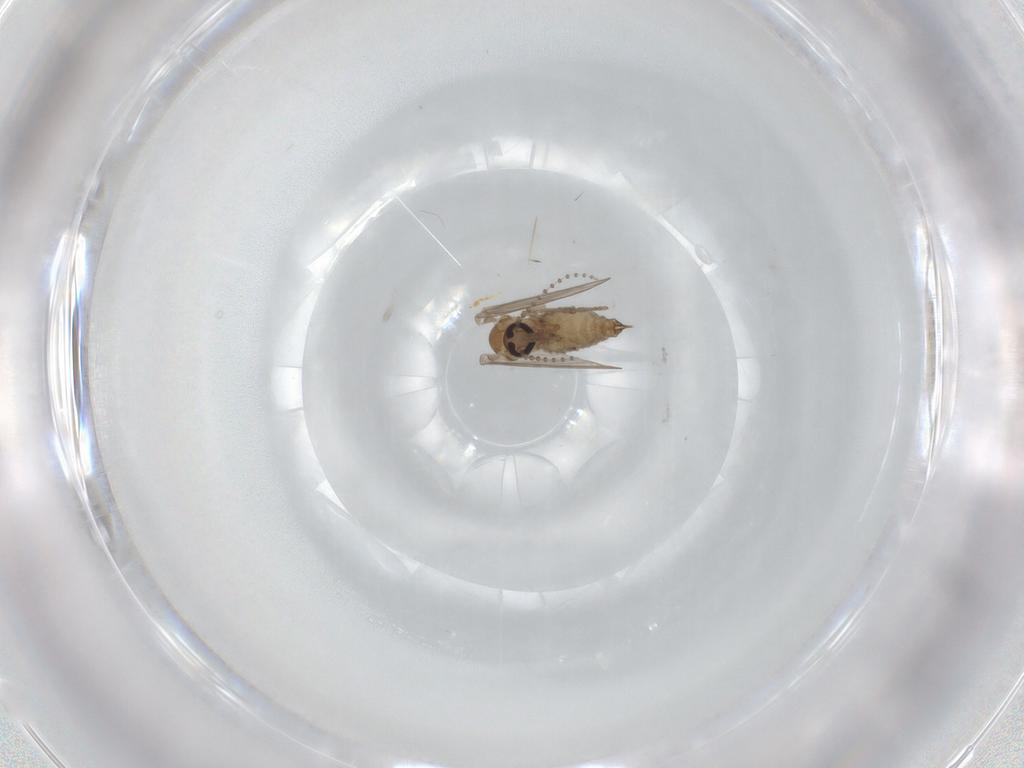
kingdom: Animalia
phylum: Arthropoda
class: Insecta
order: Diptera
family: Psychodidae
